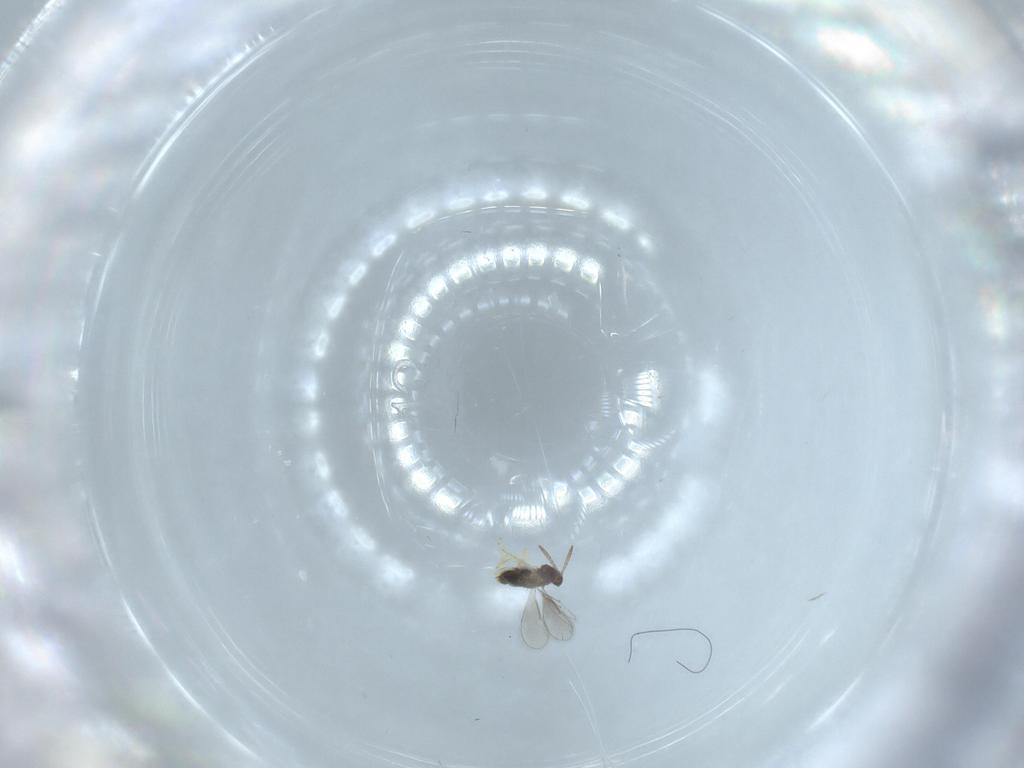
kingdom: Animalia
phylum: Arthropoda
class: Insecta
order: Hymenoptera
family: Aphelinidae
